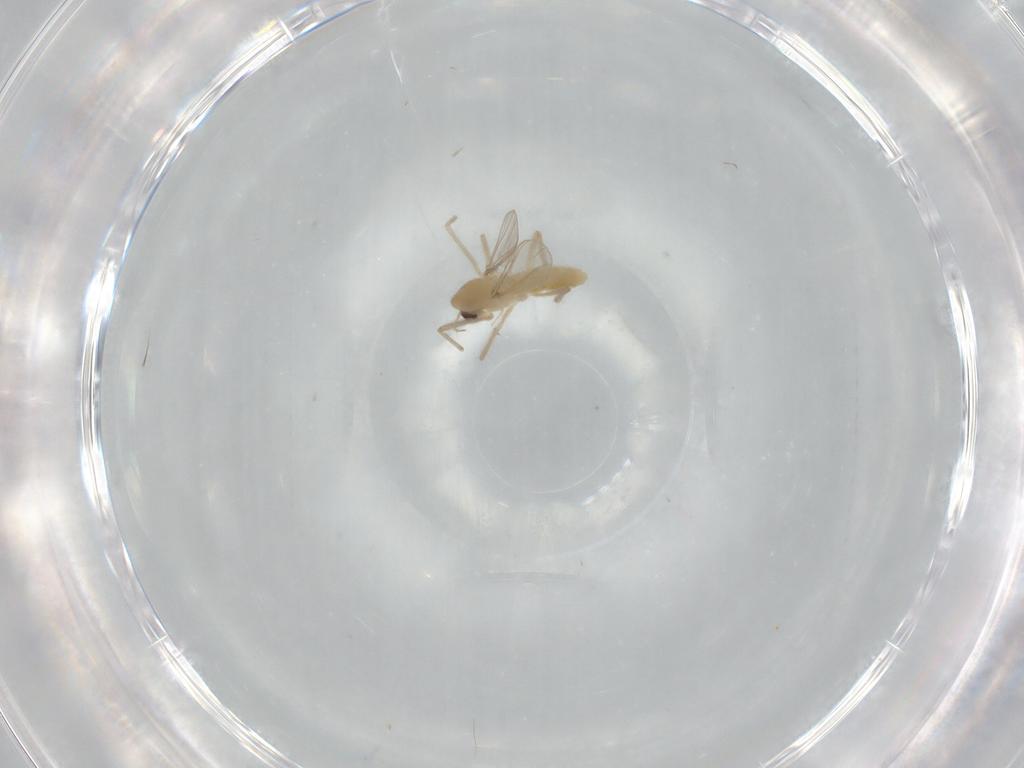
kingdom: Animalia
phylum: Arthropoda
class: Insecta
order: Diptera
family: Chironomidae
